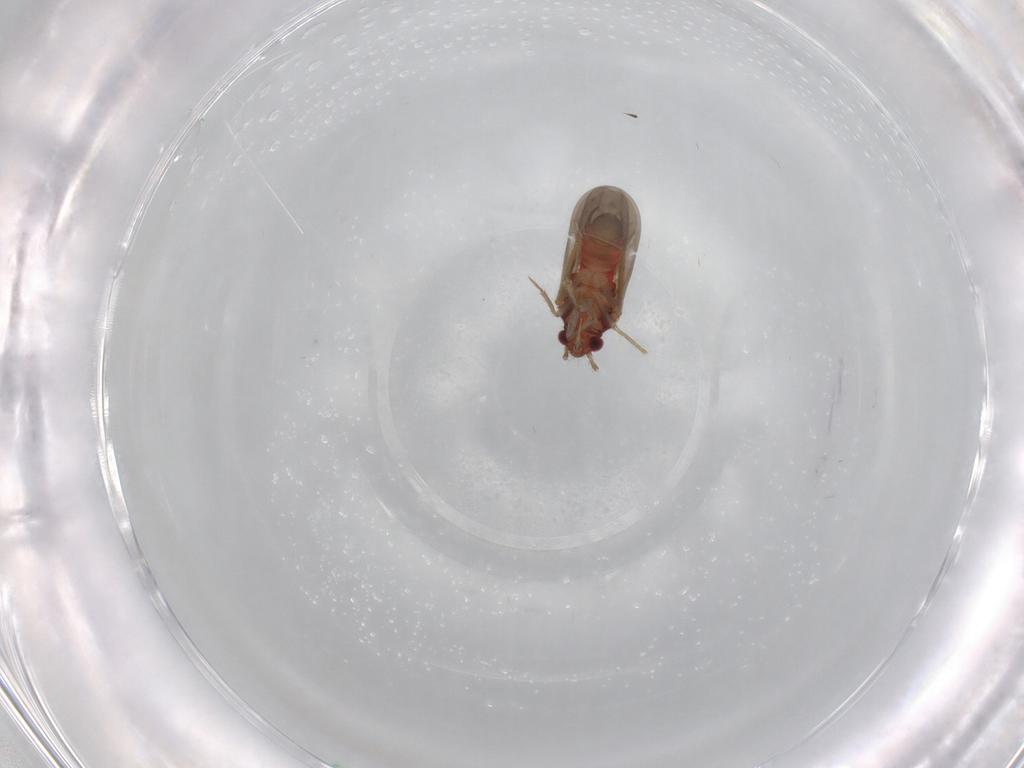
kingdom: Animalia
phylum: Arthropoda
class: Insecta
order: Hemiptera
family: Ceratocombidae
